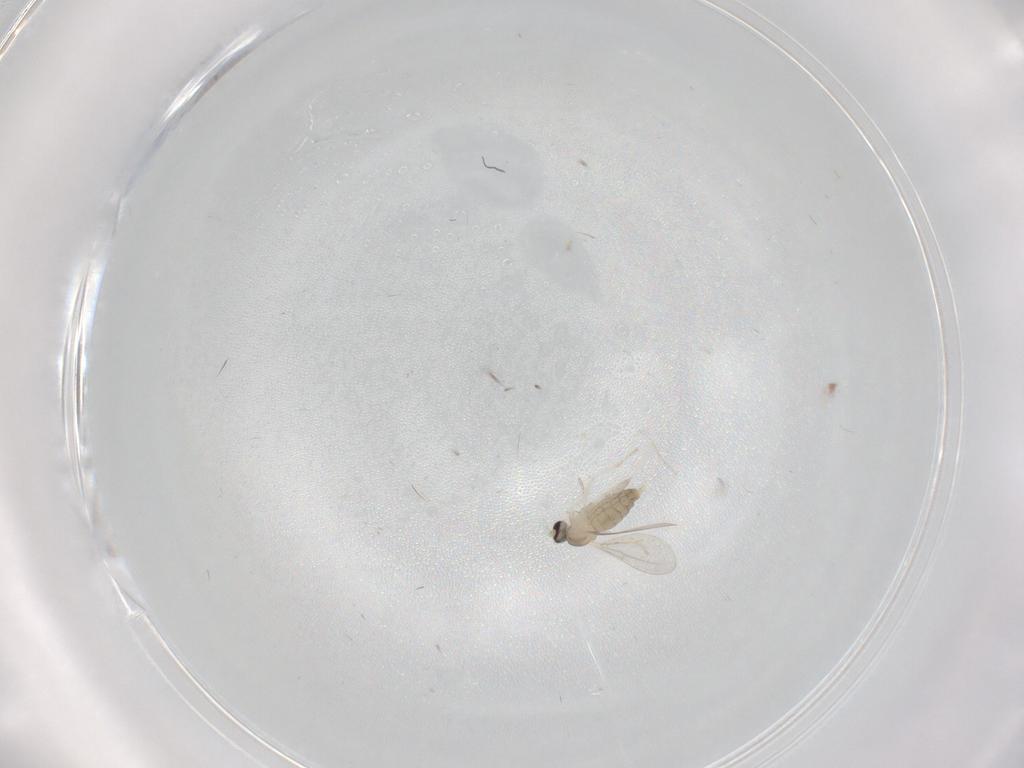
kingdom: Animalia
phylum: Arthropoda
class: Insecta
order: Diptera
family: Cecidomyiidae
